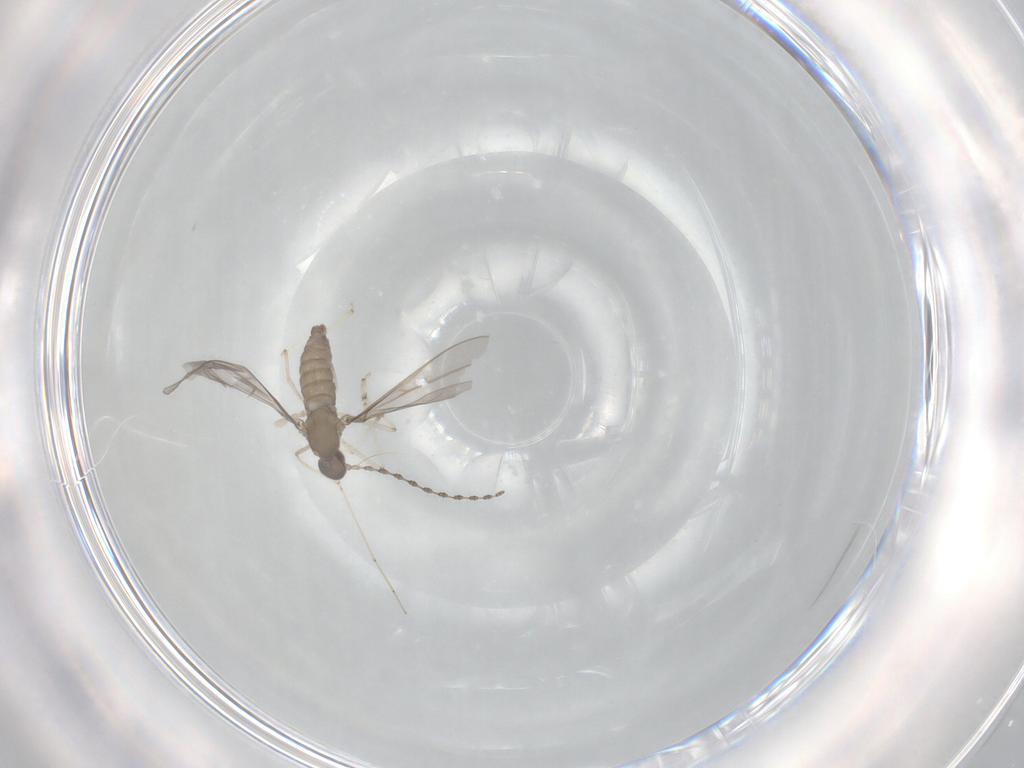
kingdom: Animalia
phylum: Arthropoda
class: Insecta
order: Diptera
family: Cecidomyiidae
